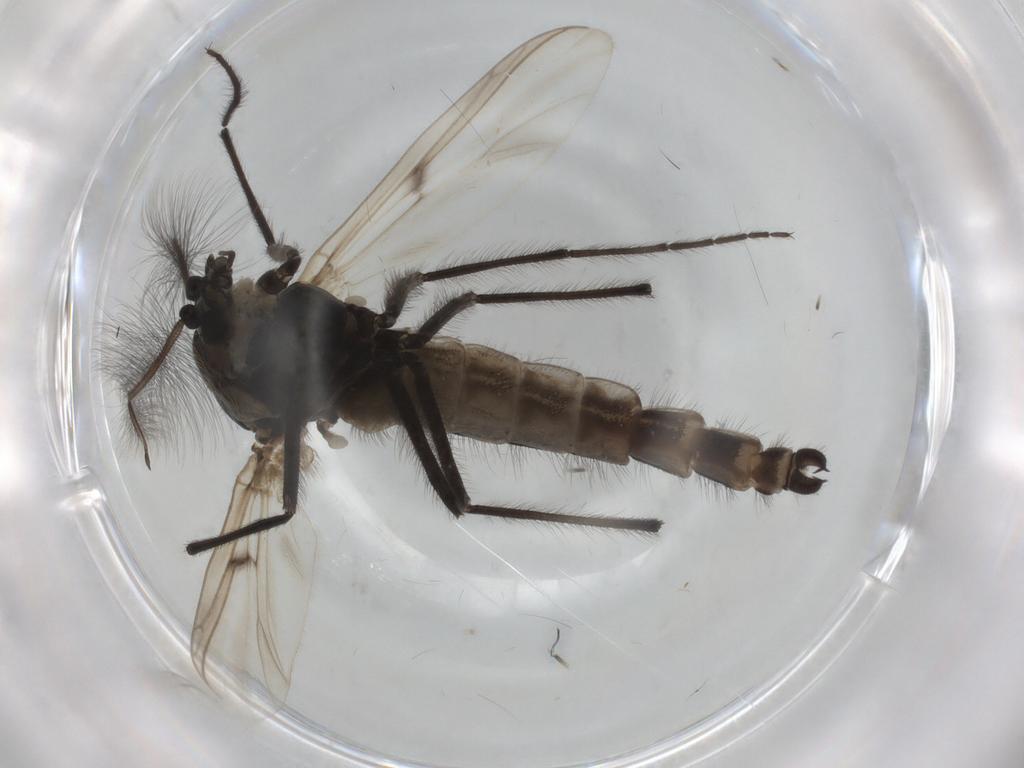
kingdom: Animalia
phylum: Arthropoda
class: Insecta
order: Diptera
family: Chironomidae
